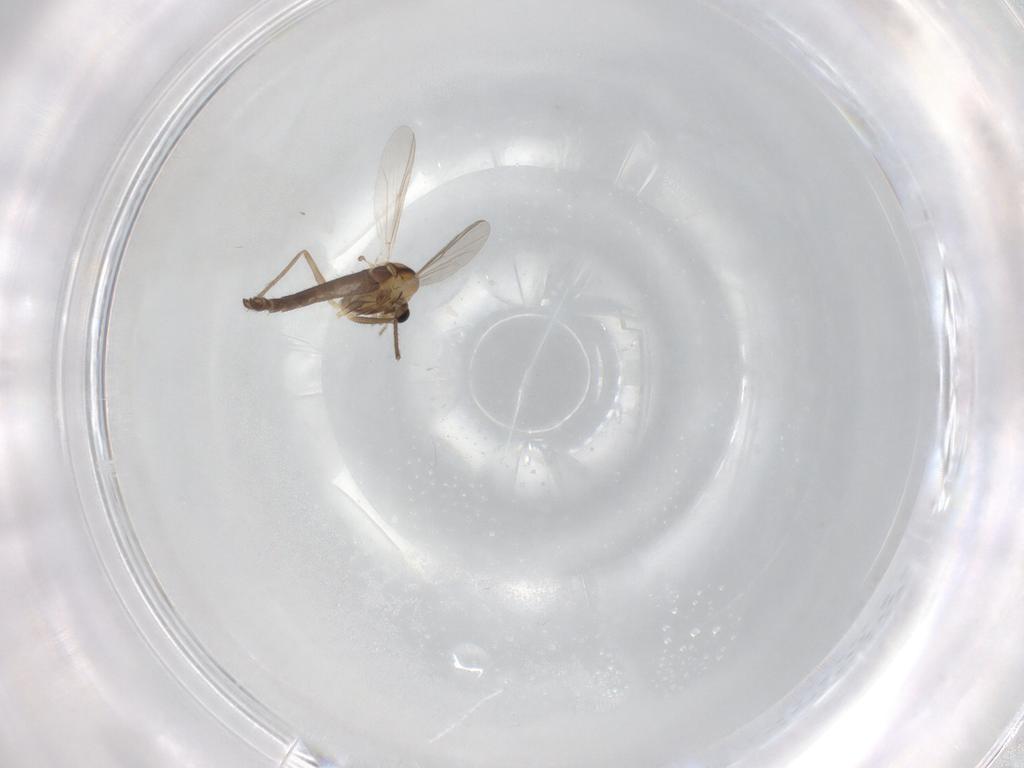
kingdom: Animalia
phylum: Arthropoda
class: Insecta
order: Diptera
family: Chironomidae
